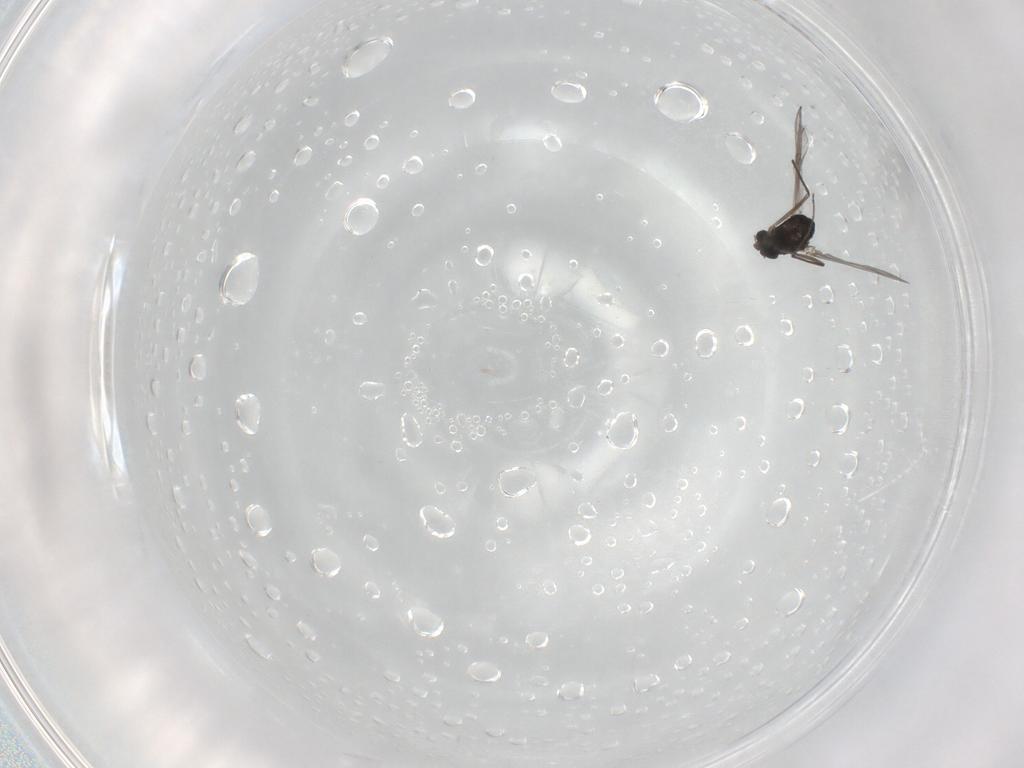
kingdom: Animalia
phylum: Arthropoda
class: Insecta
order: Diptera
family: Chironomidae
